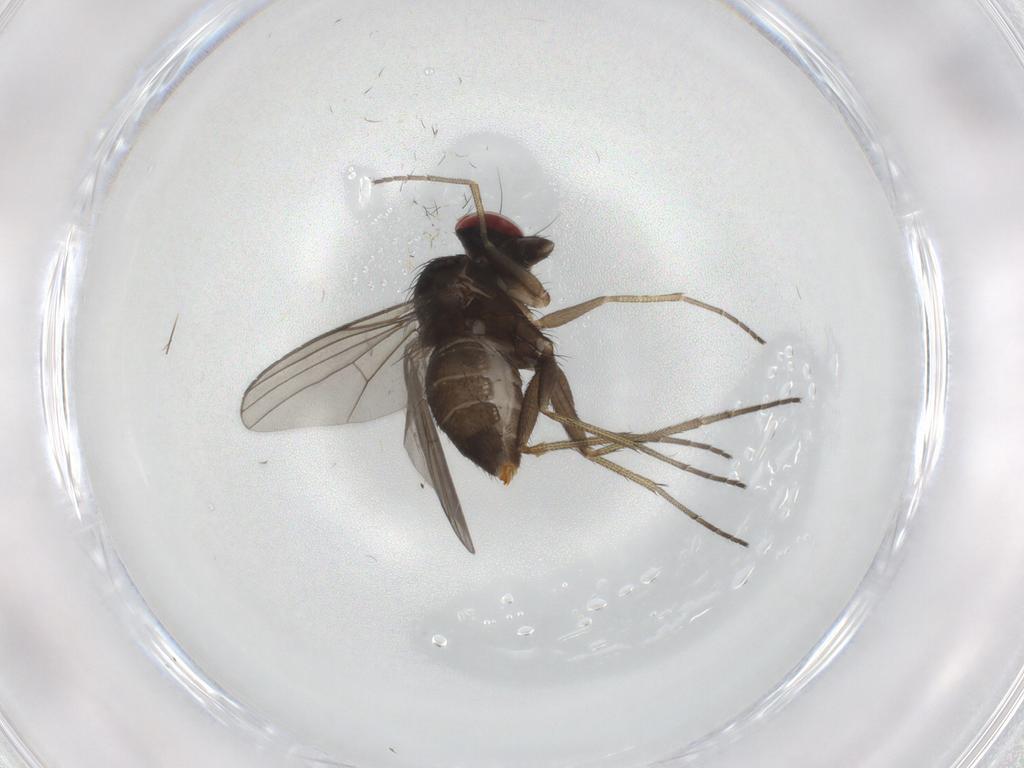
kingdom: Animalia
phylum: Arthropoda
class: Insecta
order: Diptera
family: Dolichopodidae
